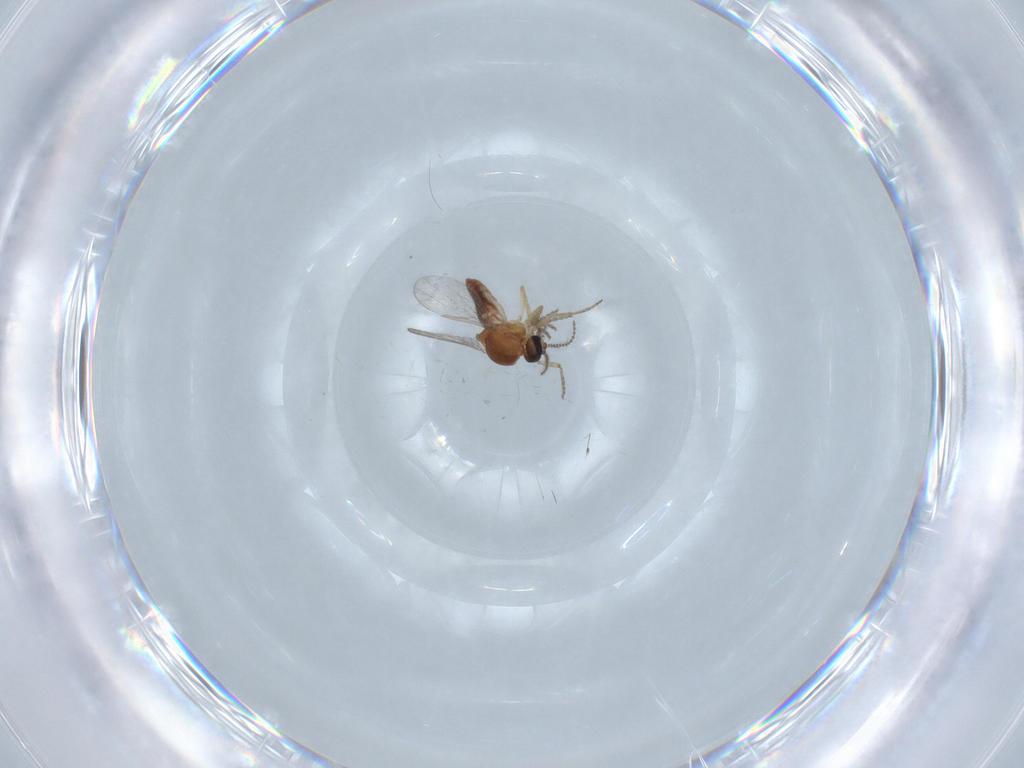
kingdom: Animalia
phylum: Arthropoda
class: Insecta
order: Diptera
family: Ceratopogonidae
